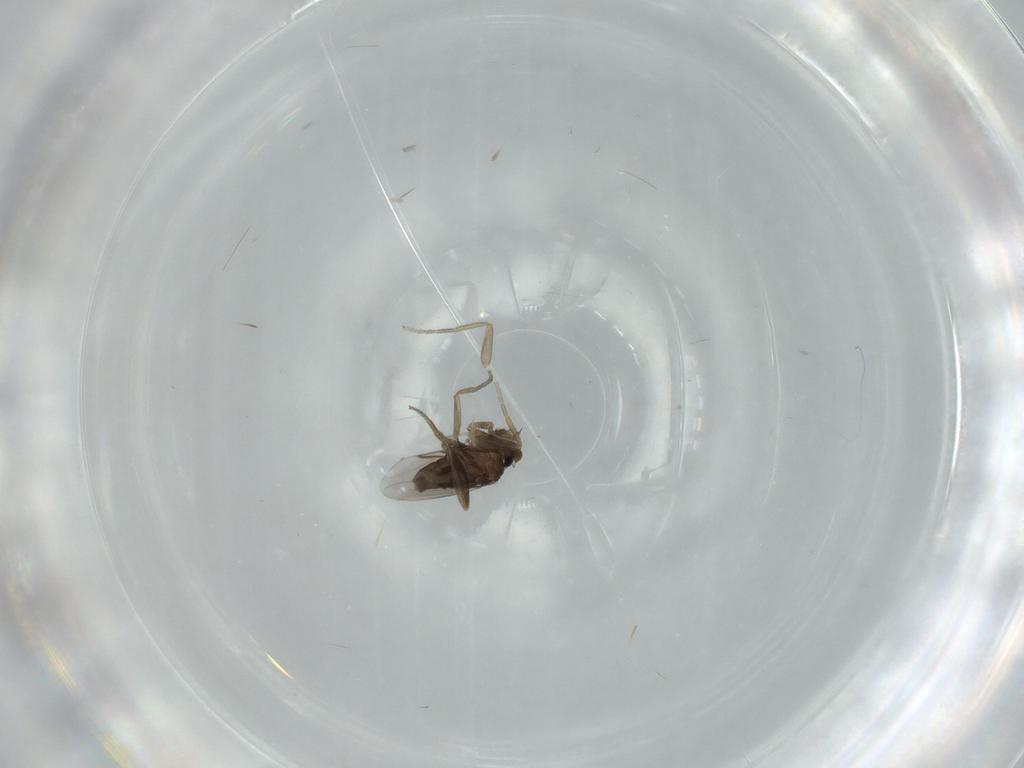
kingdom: Animalia
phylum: Arthropoda
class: Insecta
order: Diptera
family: Phoridae
